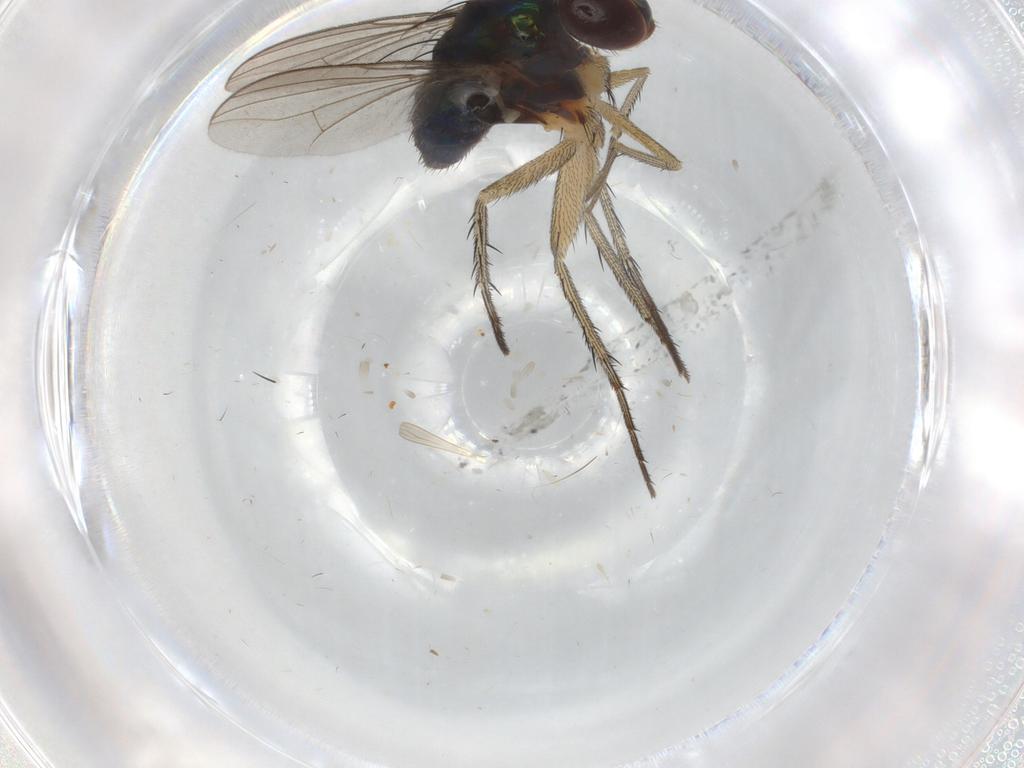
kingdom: Animalia
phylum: Arthropoda
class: Insecta
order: Diptera
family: Dolichopodidae
